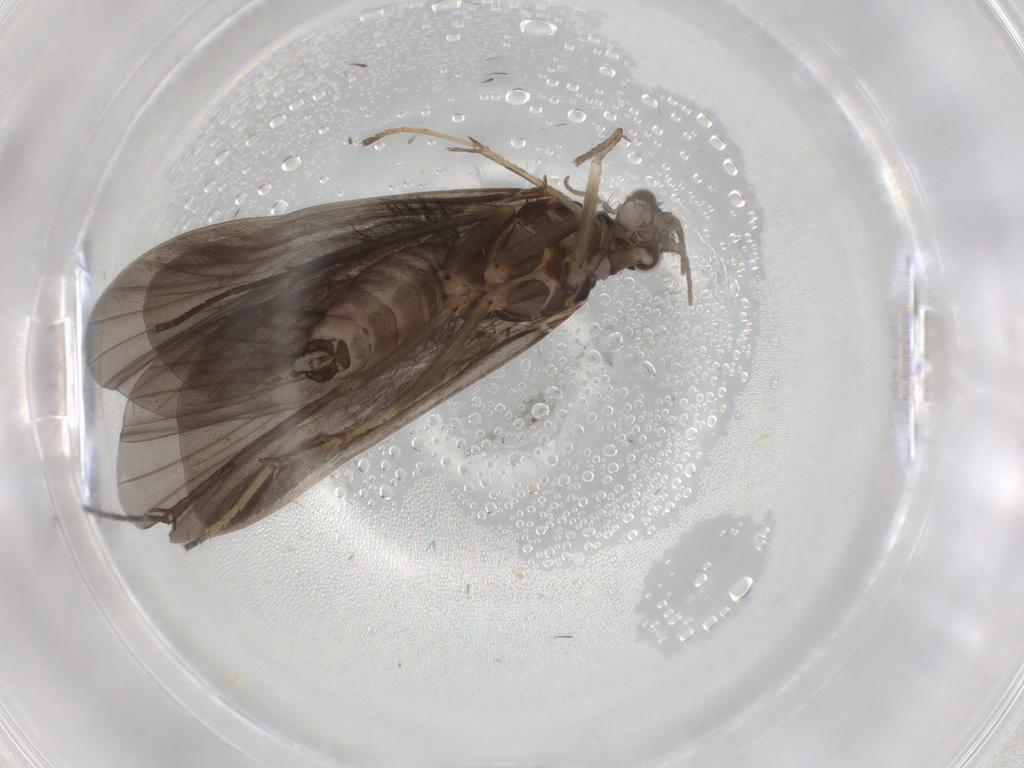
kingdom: Animalia
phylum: Arthropoda
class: Insecta
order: Trichoptera
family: Hydropsychidae
